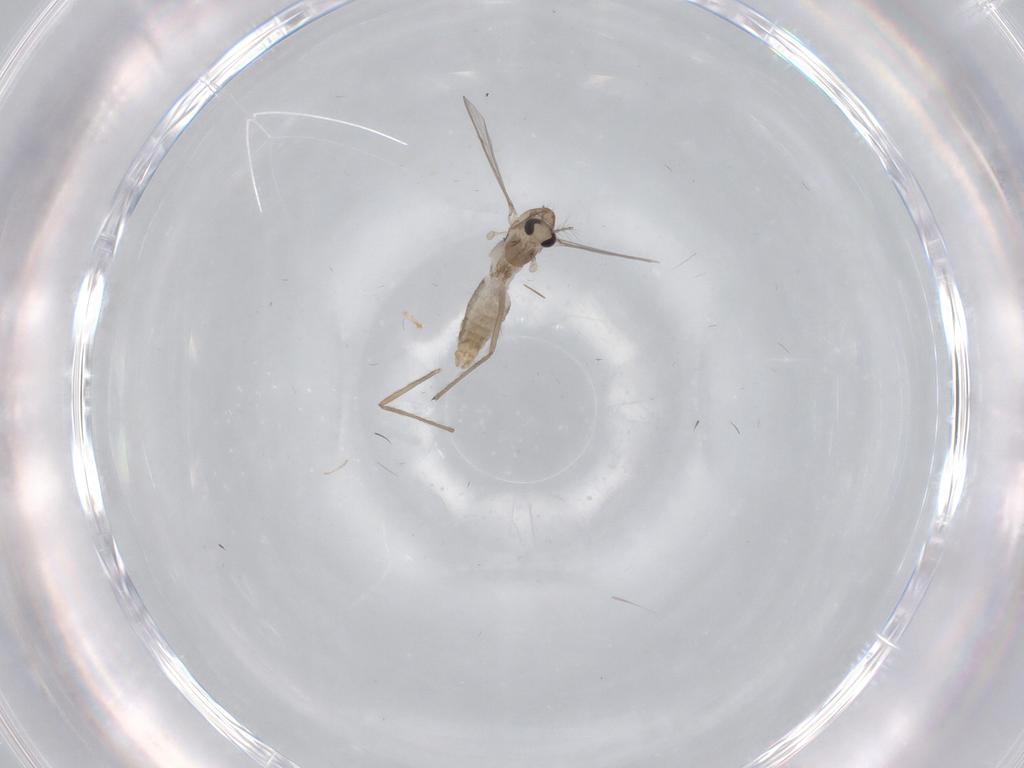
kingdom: Animalia
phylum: Arthropoda
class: Insecta
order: Diptera
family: Chironomidae
